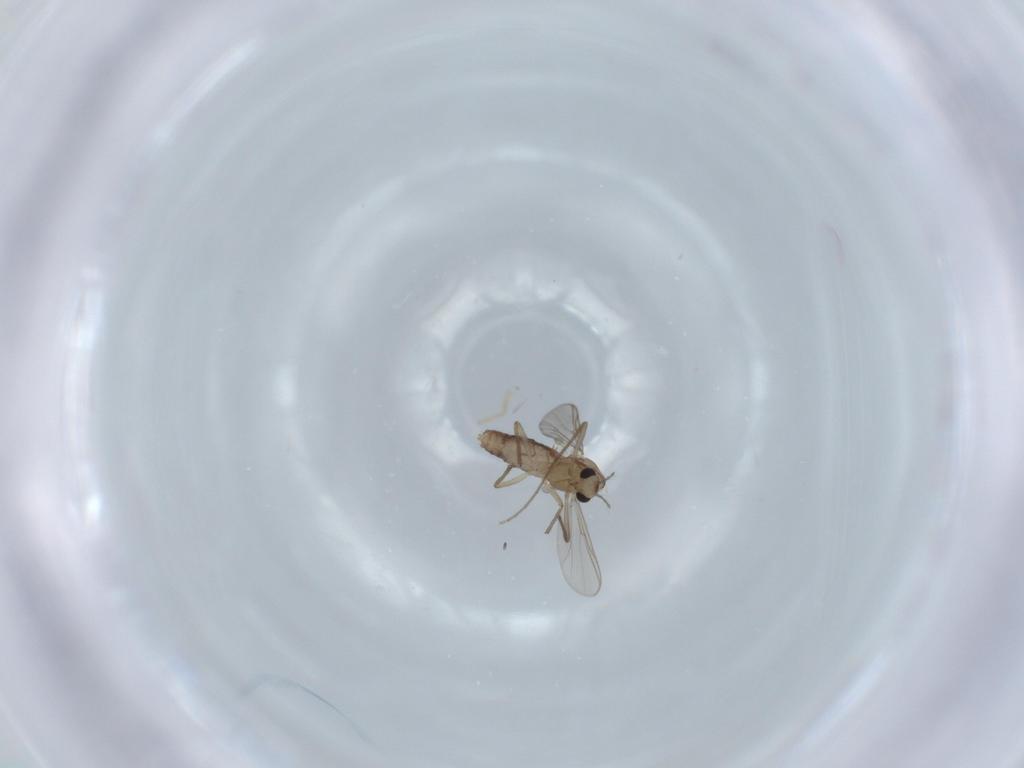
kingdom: Animalia
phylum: Arthropoda
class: Insecta
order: Diptera
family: Chironomidae
